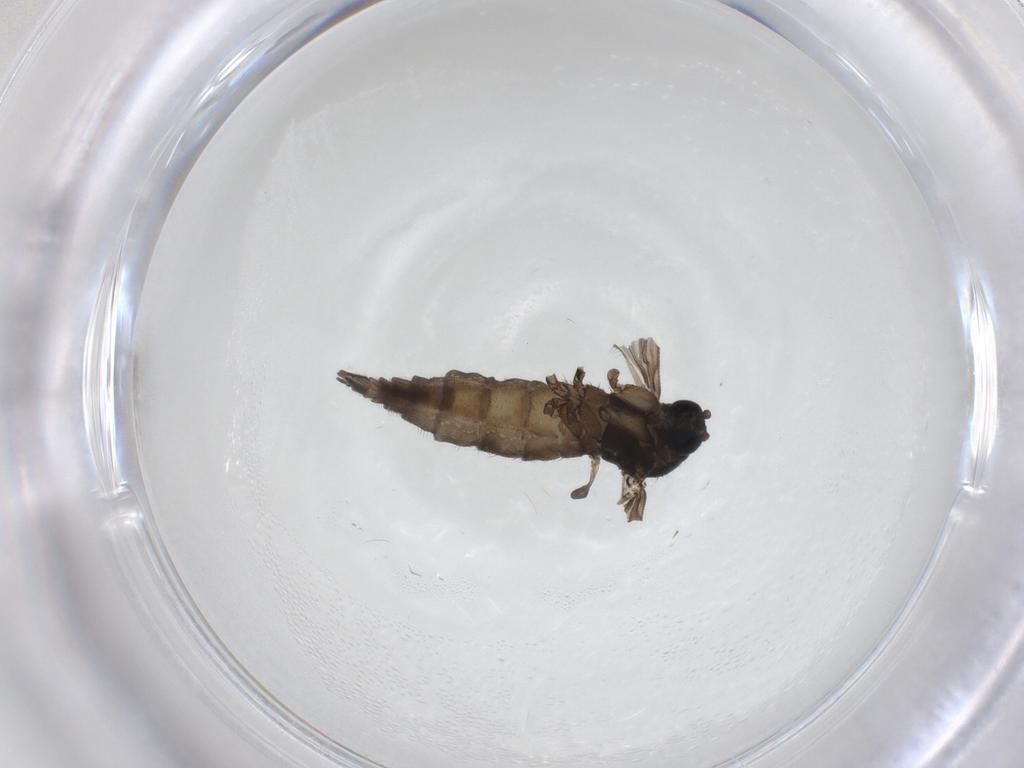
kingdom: Animalia
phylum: Arthropoda
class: Insecta
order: Diptera
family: Sciaridae
